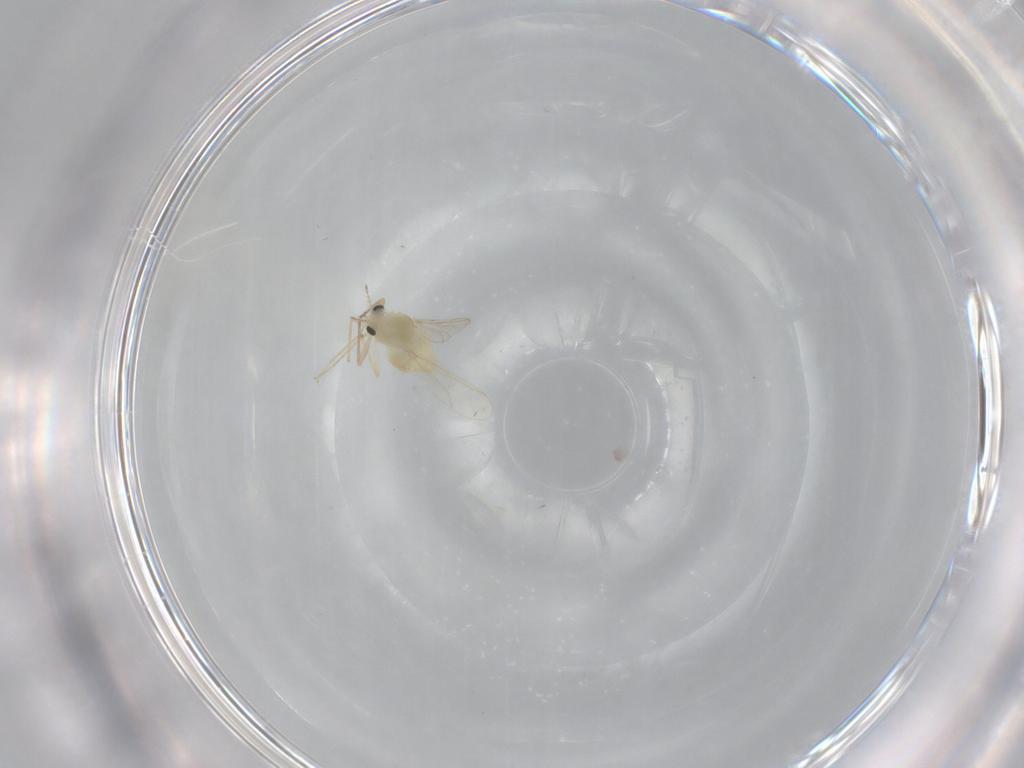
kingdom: Animalia
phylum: Arthropoda
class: Insecta
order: Diptera
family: Chironomidae
